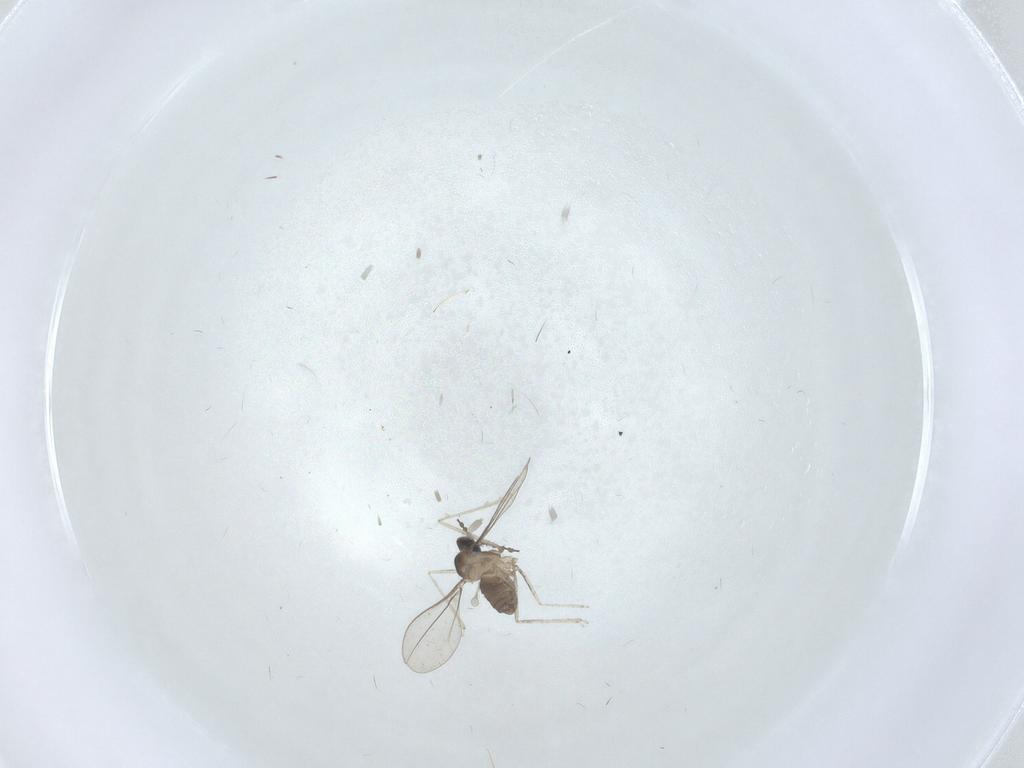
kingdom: Animalia
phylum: Arthropoda
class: Insecta
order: Diptera
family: Cecidomyiidae
